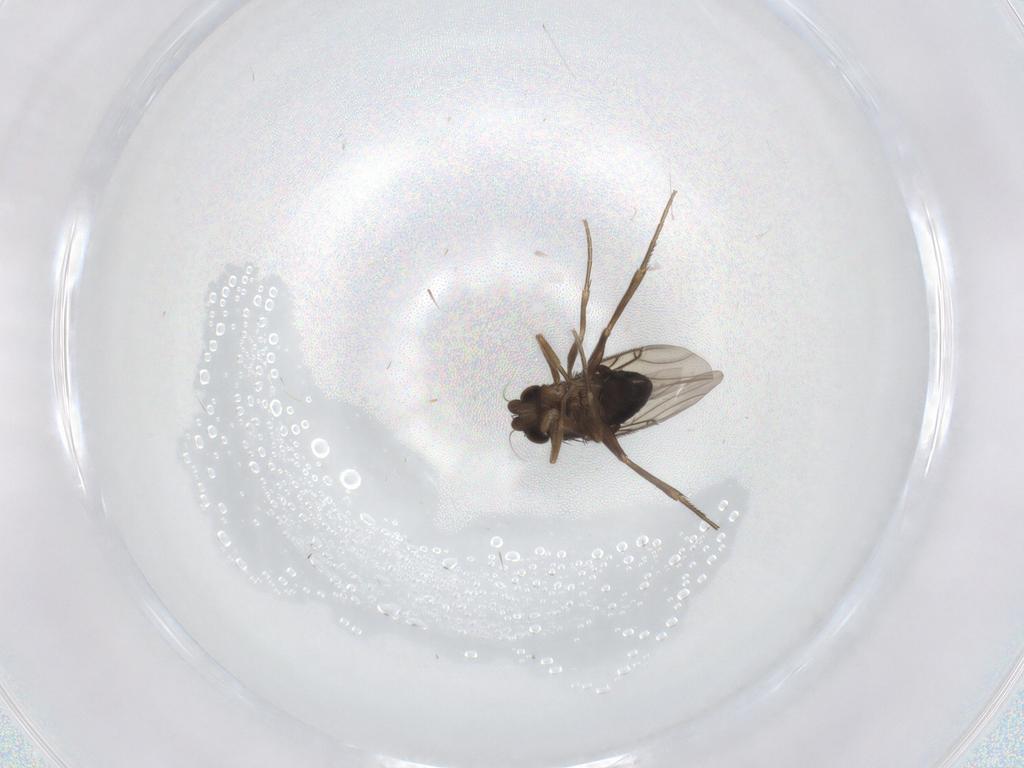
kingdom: Animalia
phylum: Arthropoda
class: Insecta
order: Diptera
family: Phoridae
